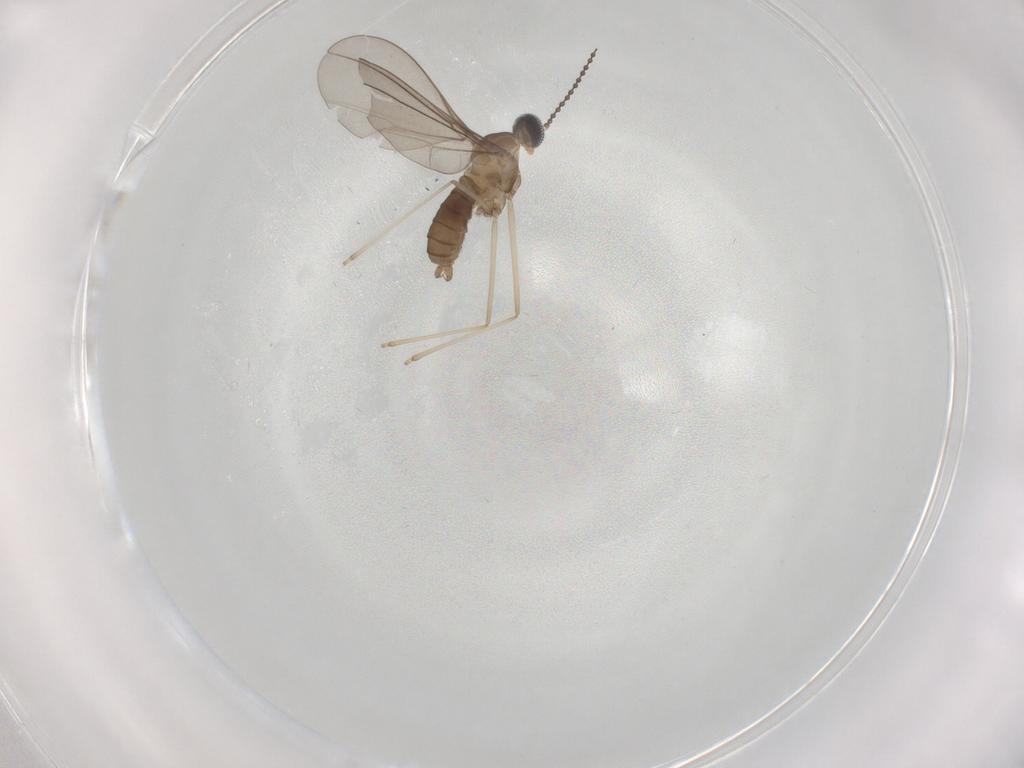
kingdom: Animalia
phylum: Arthropoda
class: Insecta
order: Diptera
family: Cecidomyiidae
